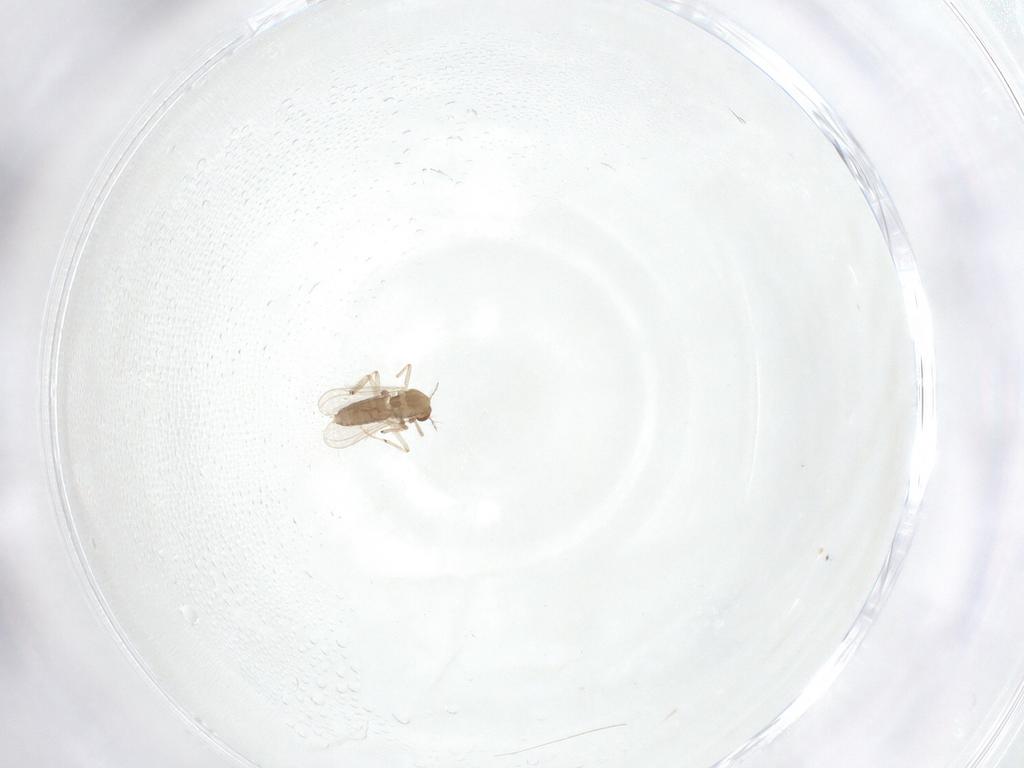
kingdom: Animalia
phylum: Arthropoda
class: Insecta
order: Diptera
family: Chironomidae
